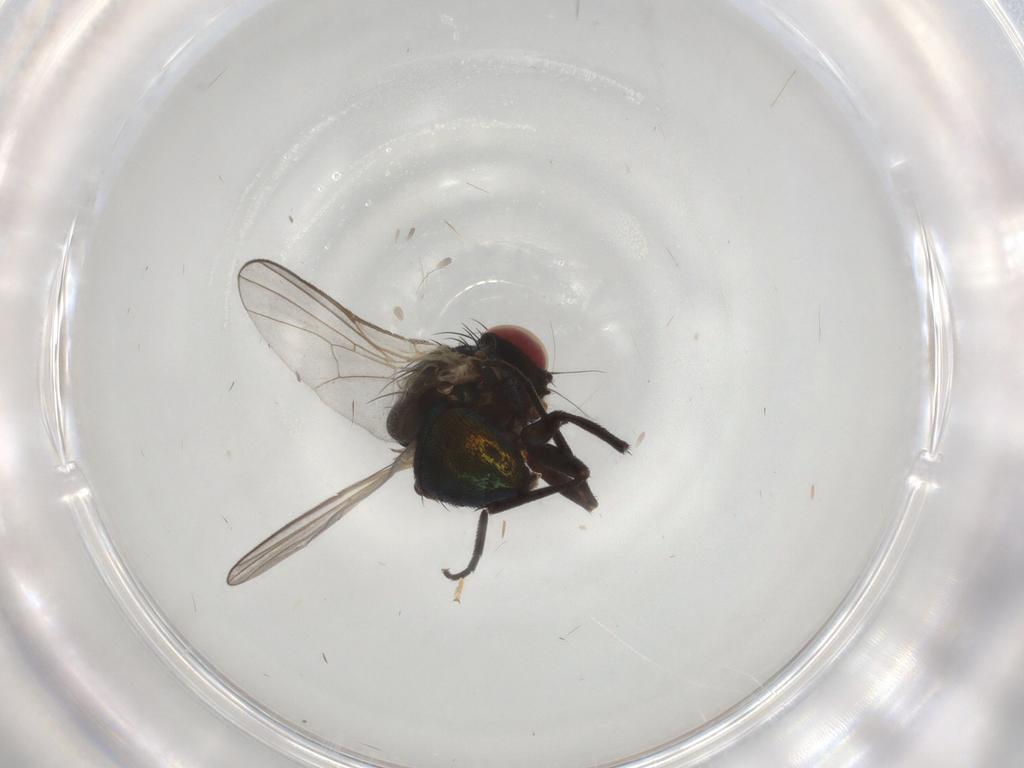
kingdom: Animalia
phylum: Arthropoda
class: Insecta
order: Diptera
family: Agromyzidae
